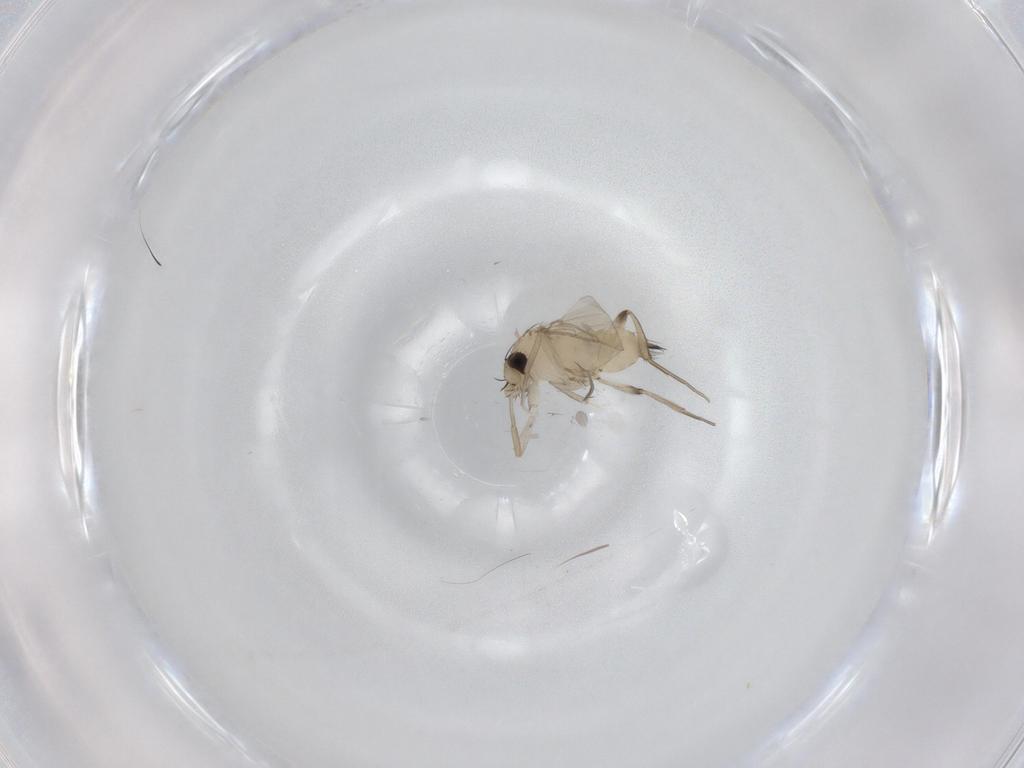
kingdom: Animalia
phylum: Arthropoda
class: Insecta
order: Diptera
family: Phoridae
